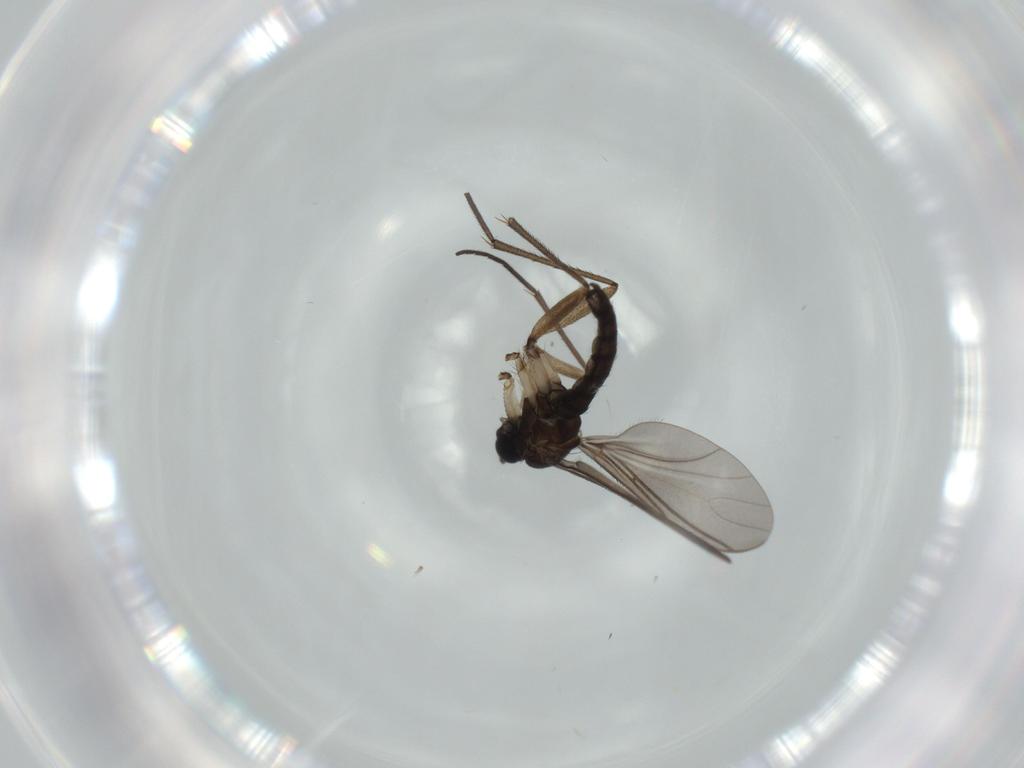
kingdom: Animalia
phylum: Arthropoda
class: Insecta
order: Diptera
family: Sciaridae
